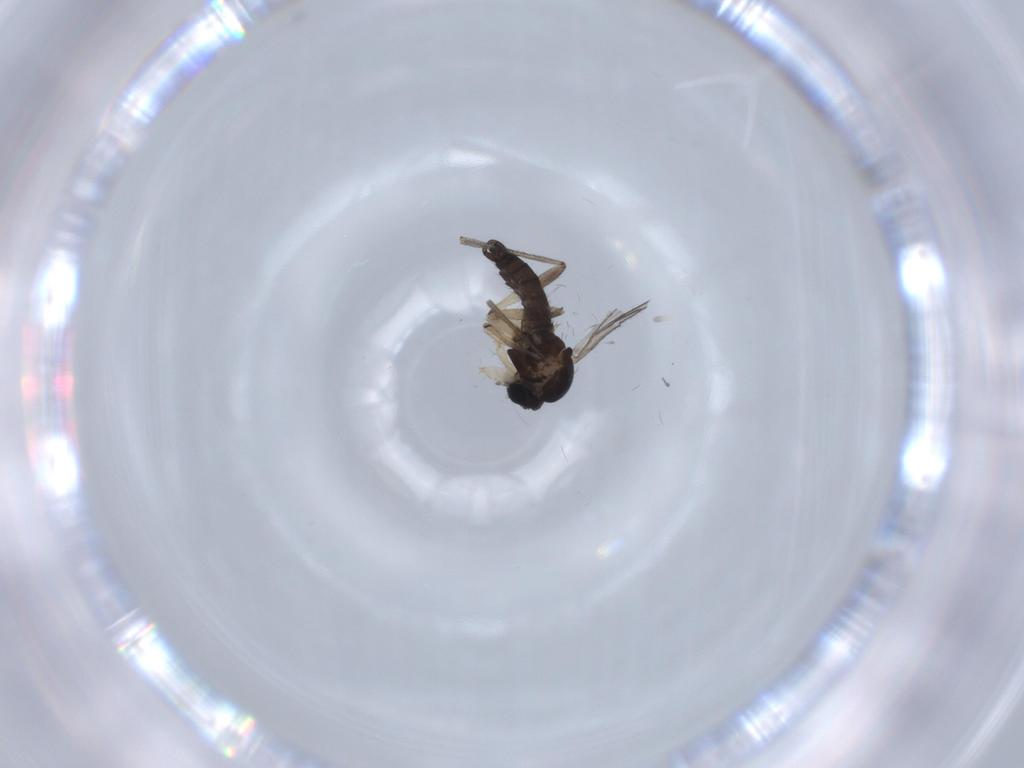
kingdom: Animalia
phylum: Arthropoda
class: Insecta
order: Diptera
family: Sciaridae
